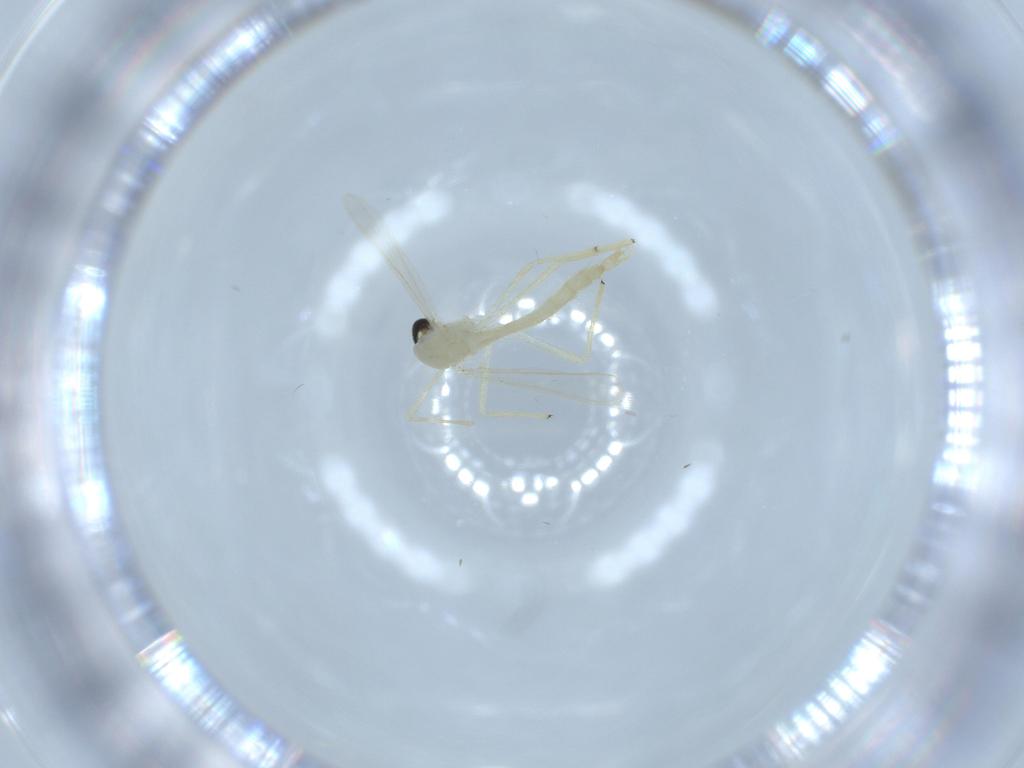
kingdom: Animalia
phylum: Arthropoda
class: Insecta
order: Diptera
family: Chironomidae
